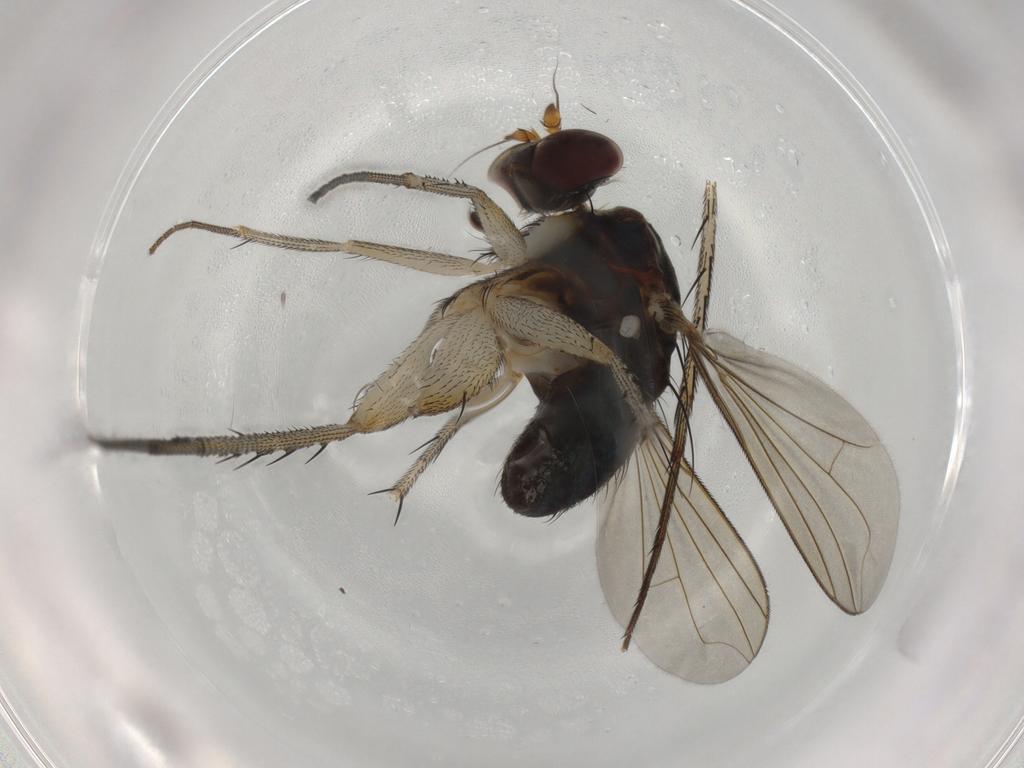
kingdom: Animalia
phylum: Arthropoda
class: Insecta
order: Diptera
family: Dolichopodidae
